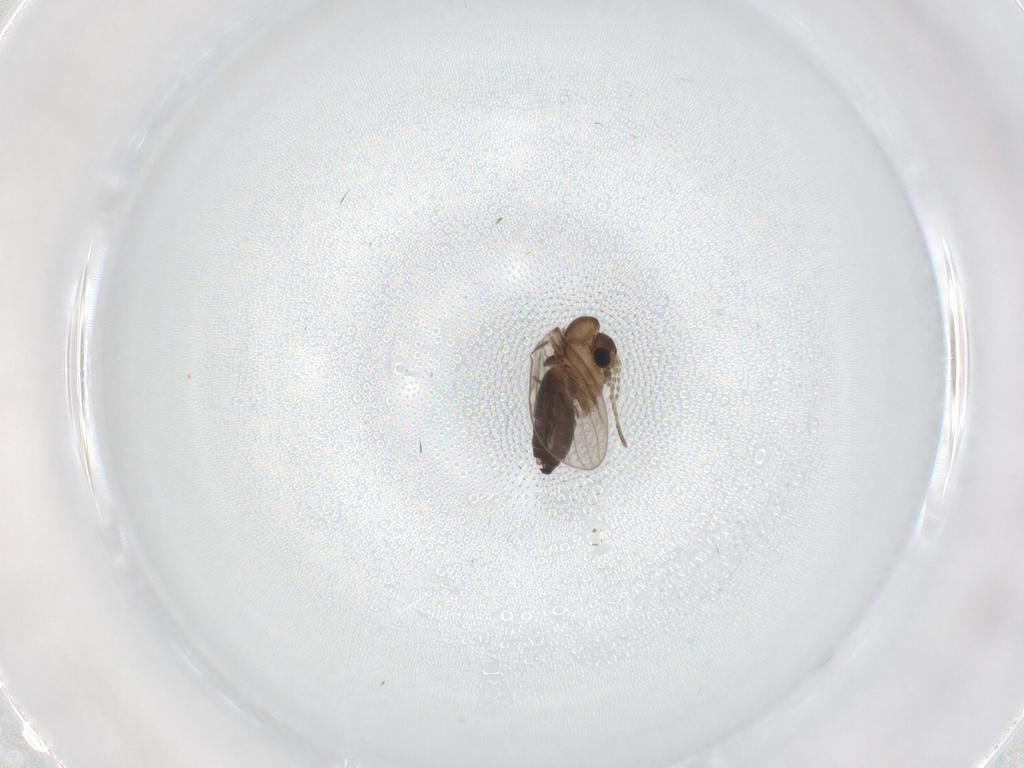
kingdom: Animalia
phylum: Arthropoda
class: Insecta
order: Diptera
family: Psychodidae
